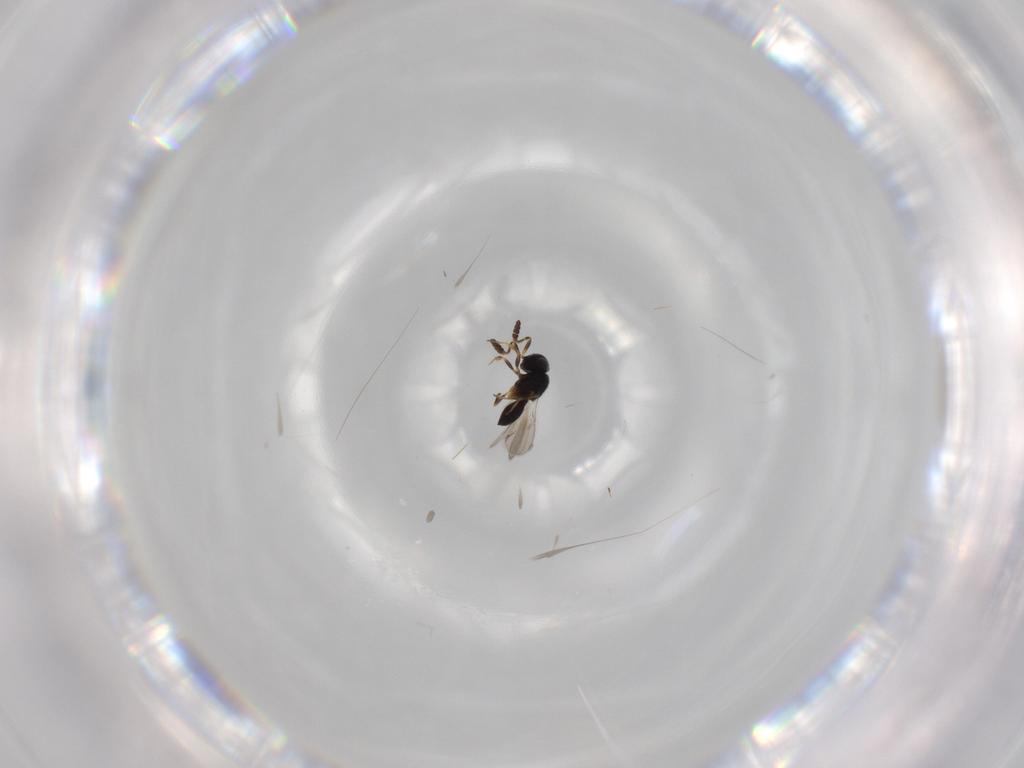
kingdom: Animalia
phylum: Arthropoda
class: Insecta
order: Hymenoptera
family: Scelionidae
